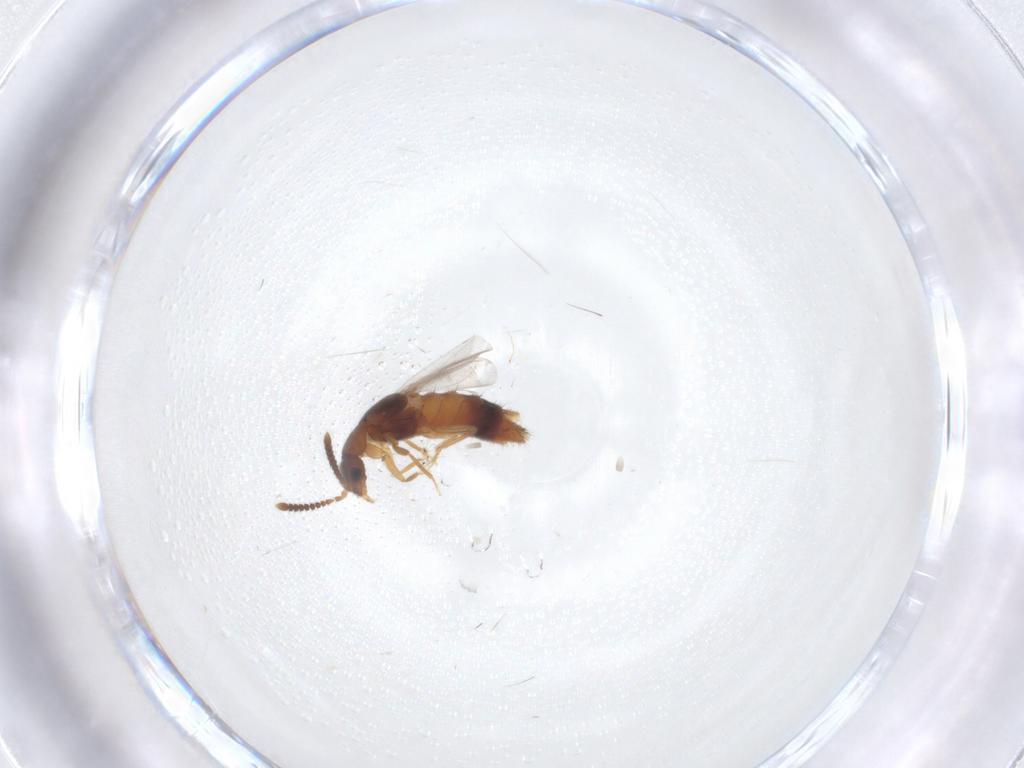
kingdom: Animalia
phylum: Arthropoda
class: Insecta
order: Coleoptera
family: Staphylinidae
